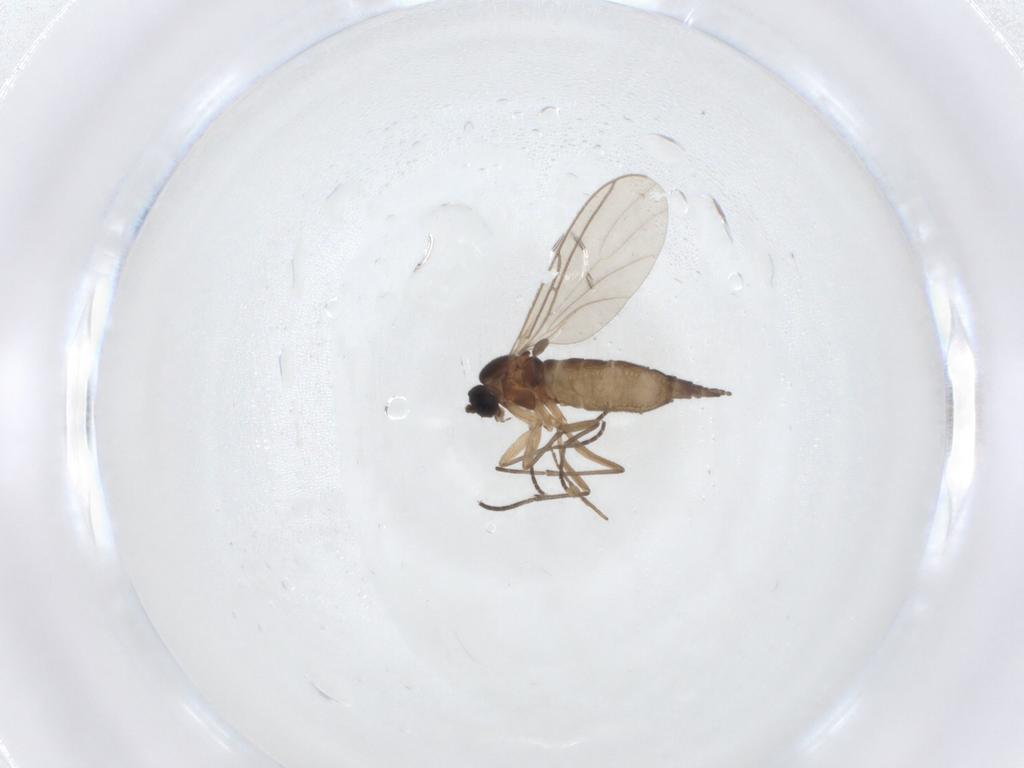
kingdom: Animalia
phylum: Arthropoda
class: Insecta
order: Diptera
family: Chironomidae
